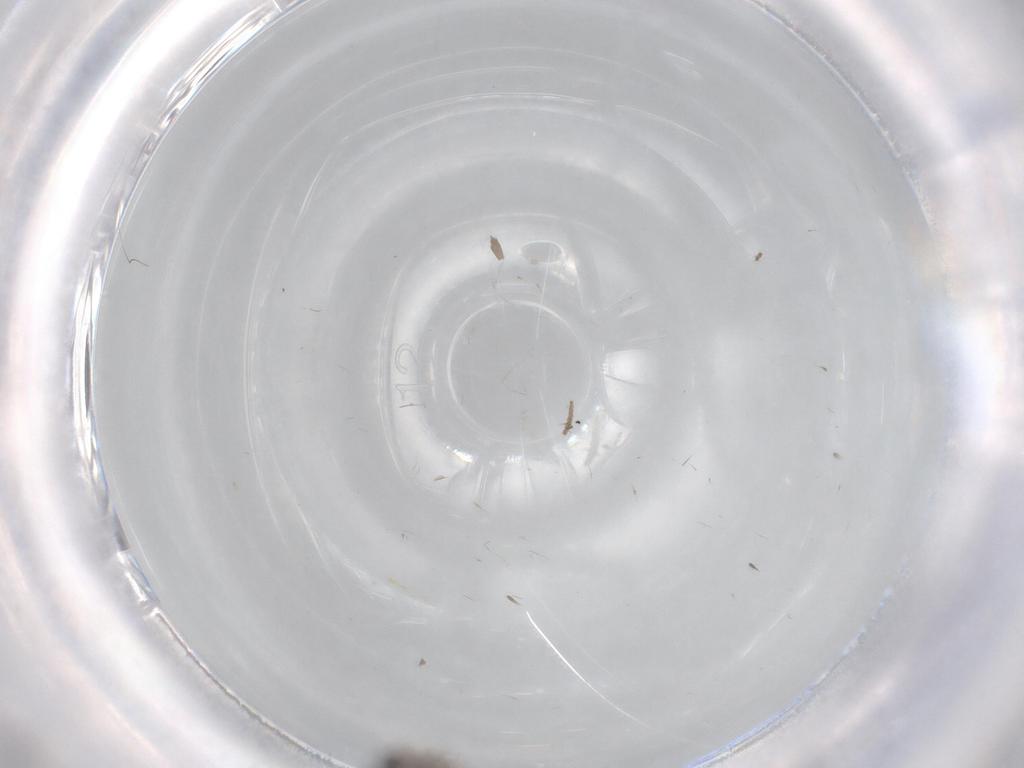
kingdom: Animalia
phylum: Arthropoda
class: Insecta
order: Diptera
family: Psychodidae
